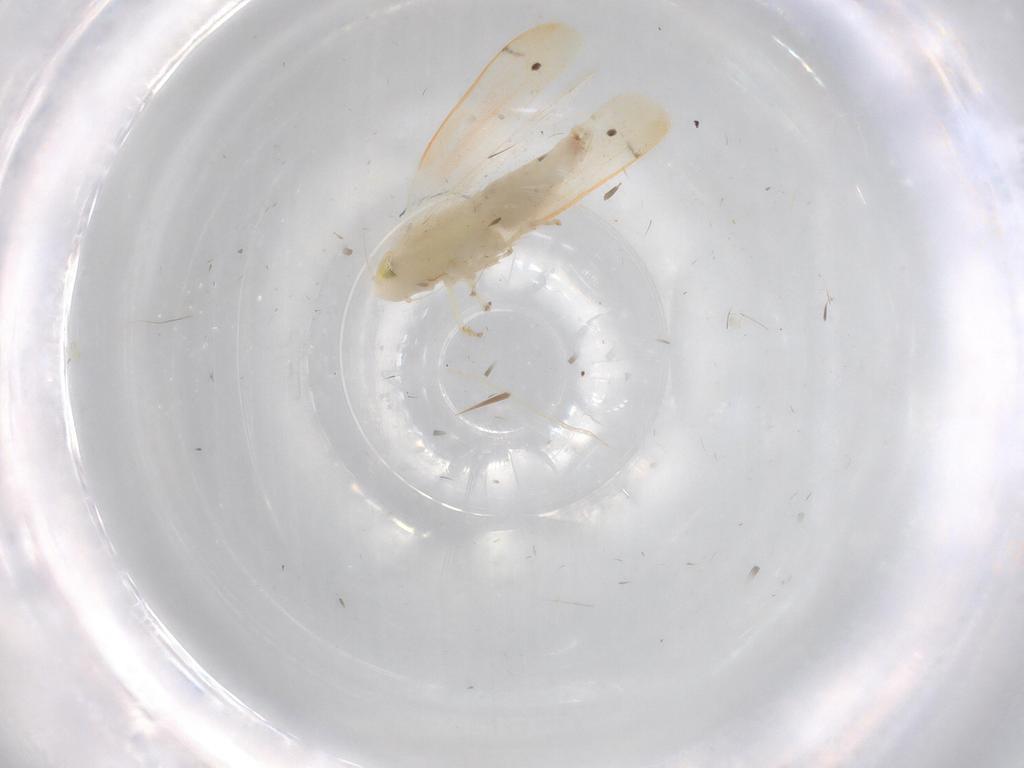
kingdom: Animalia
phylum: Arthropoda
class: Insecta
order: Hemiptera
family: Cicadellidae
